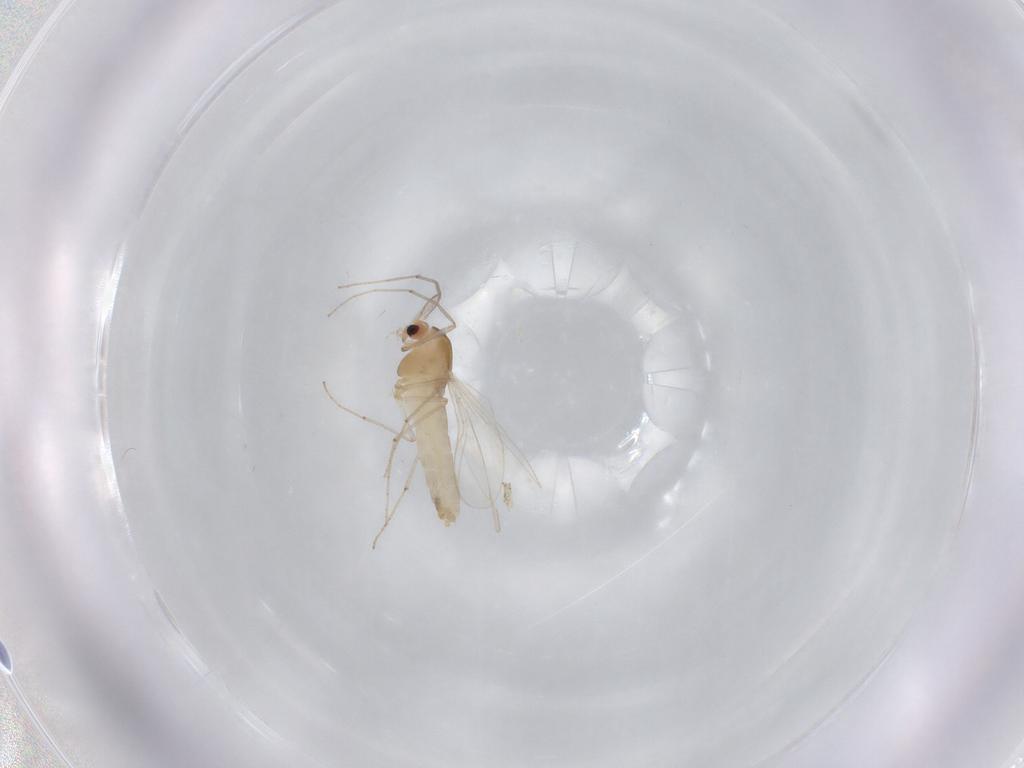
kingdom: Animalia
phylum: Arthropoda
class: Insecta
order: Diptera
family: Chironomidae
